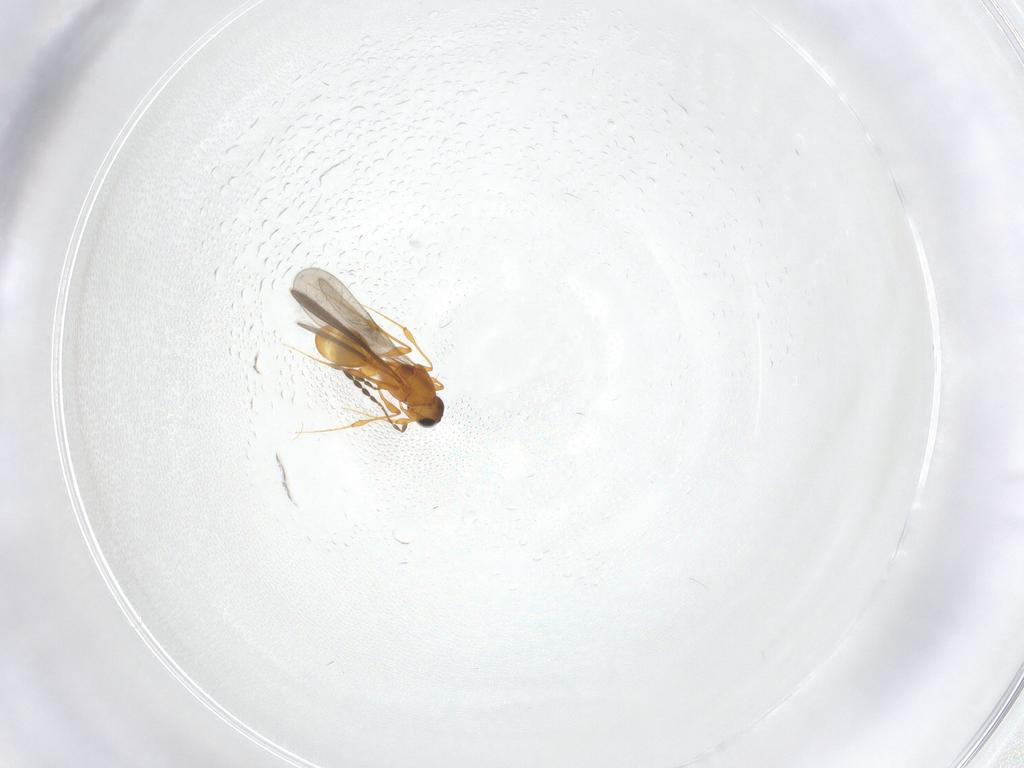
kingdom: Animalia
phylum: Arthropoda
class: Insecta
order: Hymenoptera
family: Platygastridae
